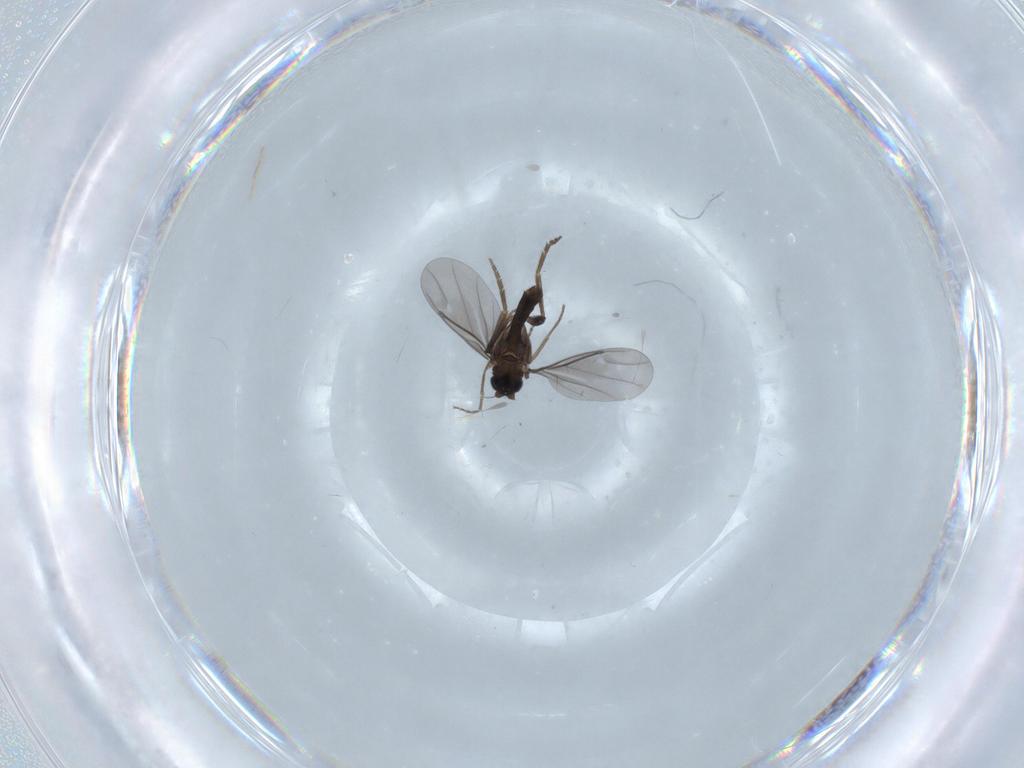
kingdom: Animalia
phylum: Arthropoda
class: Insecta
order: Diptera
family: Phoridae
